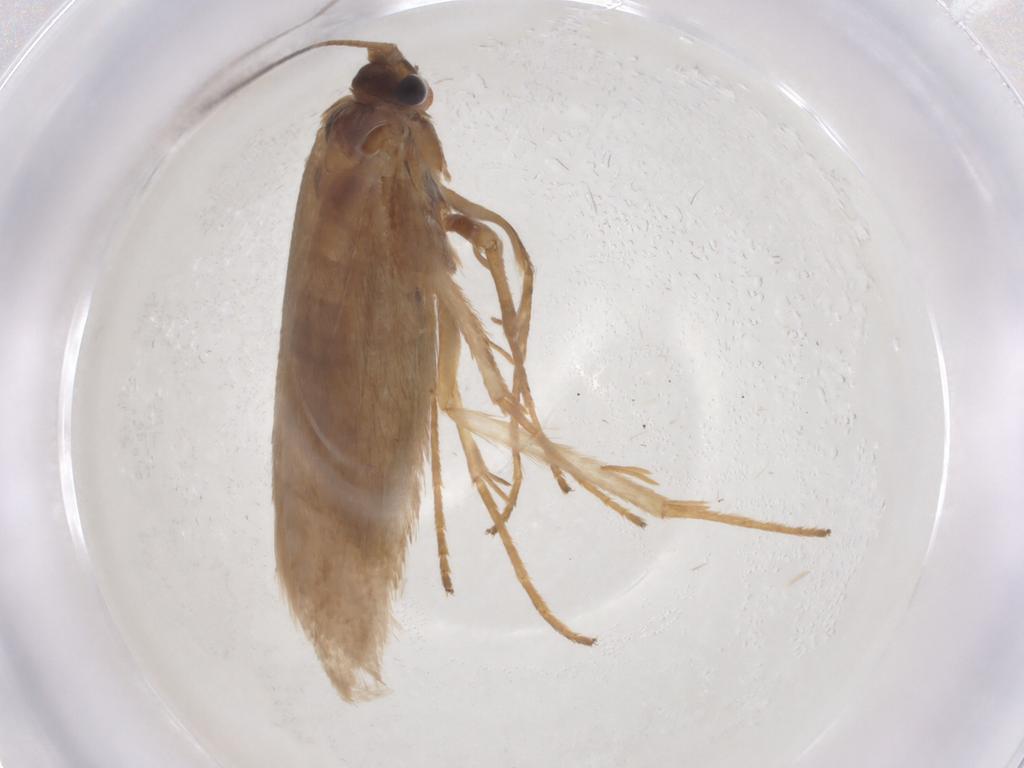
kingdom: Animalia
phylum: Arthropoda
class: Insecta
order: Lepidoptera
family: Adelidae
